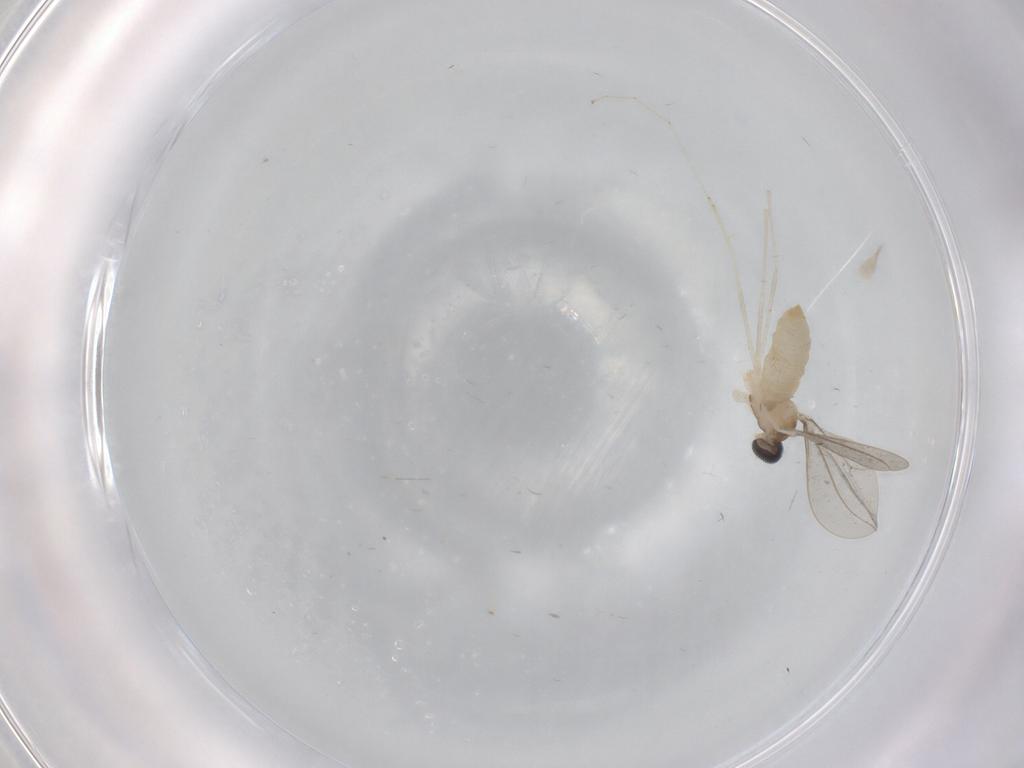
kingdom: Animalia
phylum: Arthropoda
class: Insecta
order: Diptera
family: Cecidomyiidae
